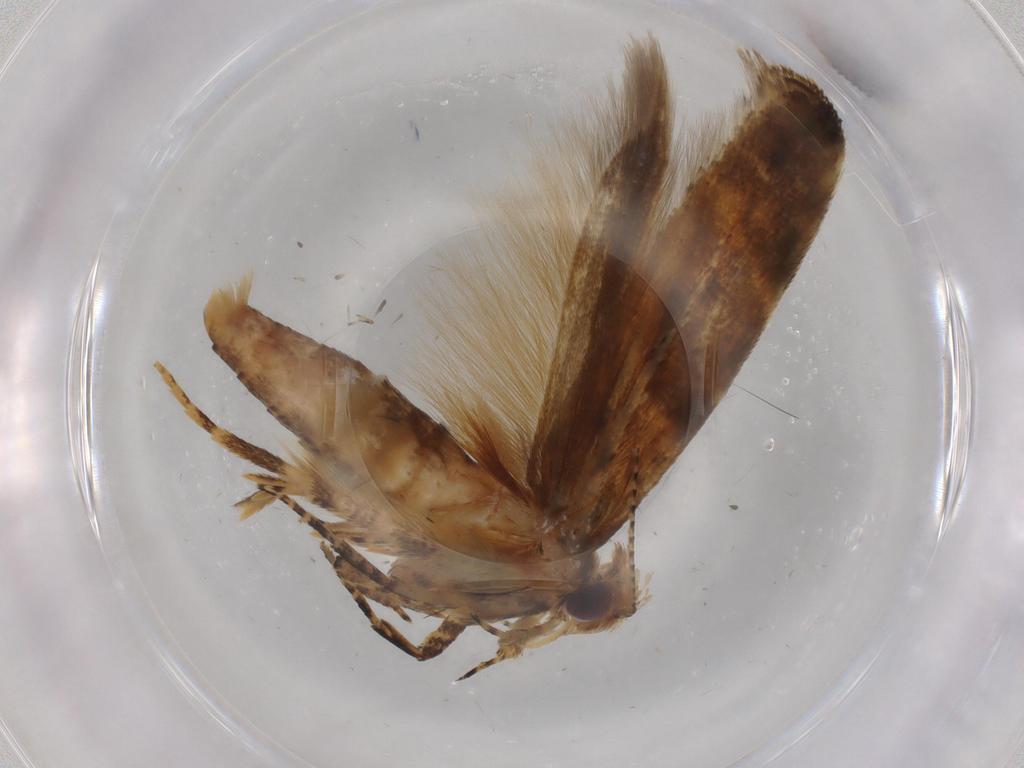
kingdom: Animalia
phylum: Arthropoda
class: Insecta
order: Lepidoptera
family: Gelechiidae
